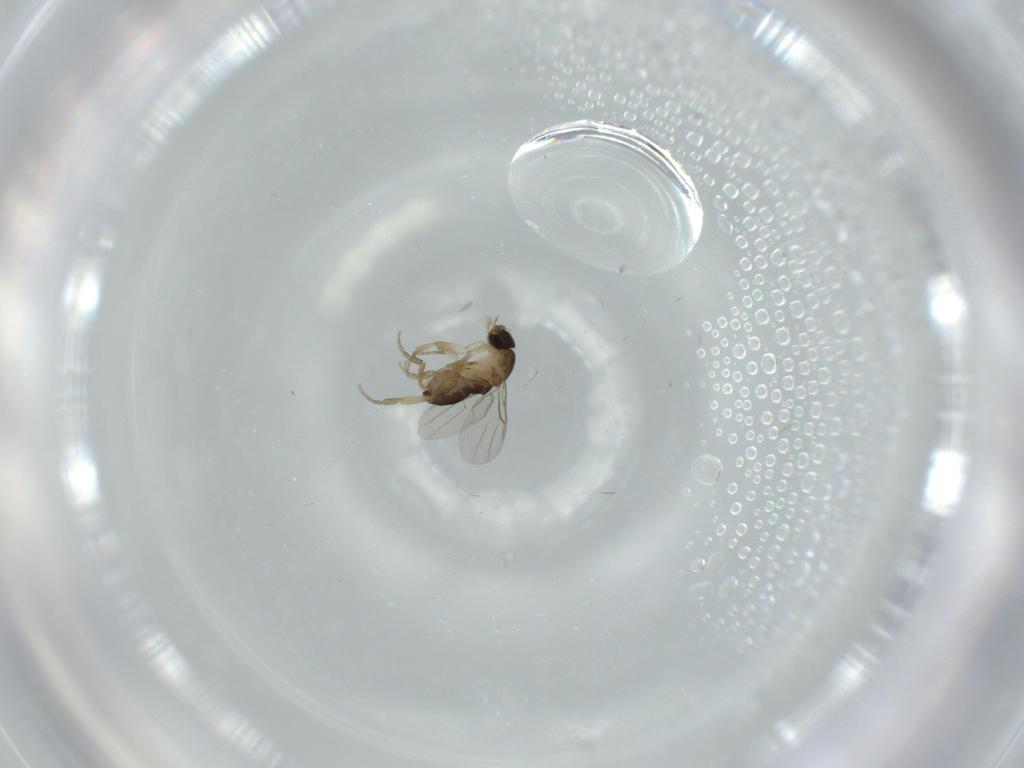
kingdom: Animalia
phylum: Arthropoda
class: Insecta
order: Diptera
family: Phoridae
